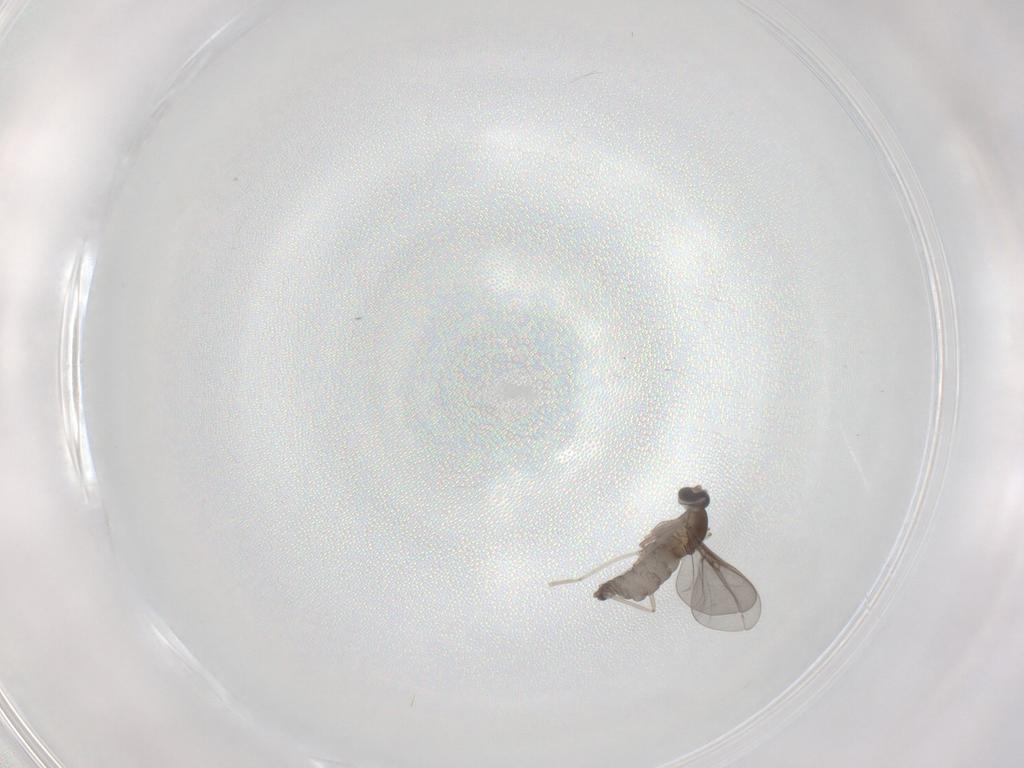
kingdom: Animalia
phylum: Arthropoda
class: Insecta
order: Diptera
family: Cecidomyiidae
